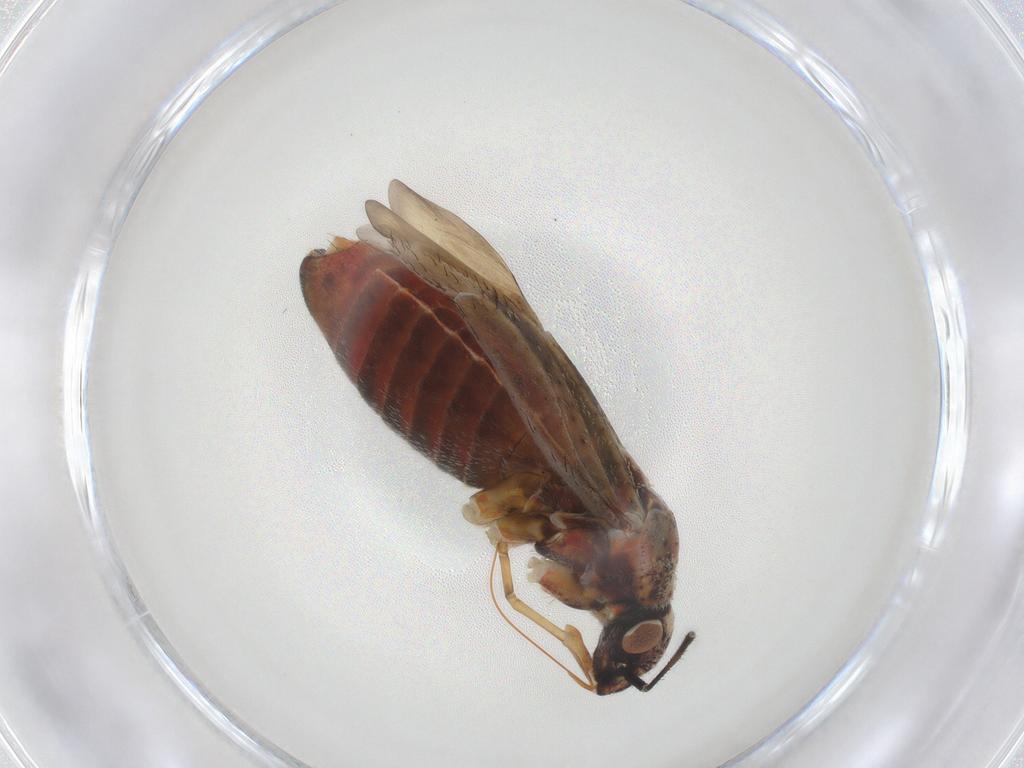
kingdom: Animalia
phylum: Arthropoda
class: Insecta
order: Hemiptera
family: Miridae
